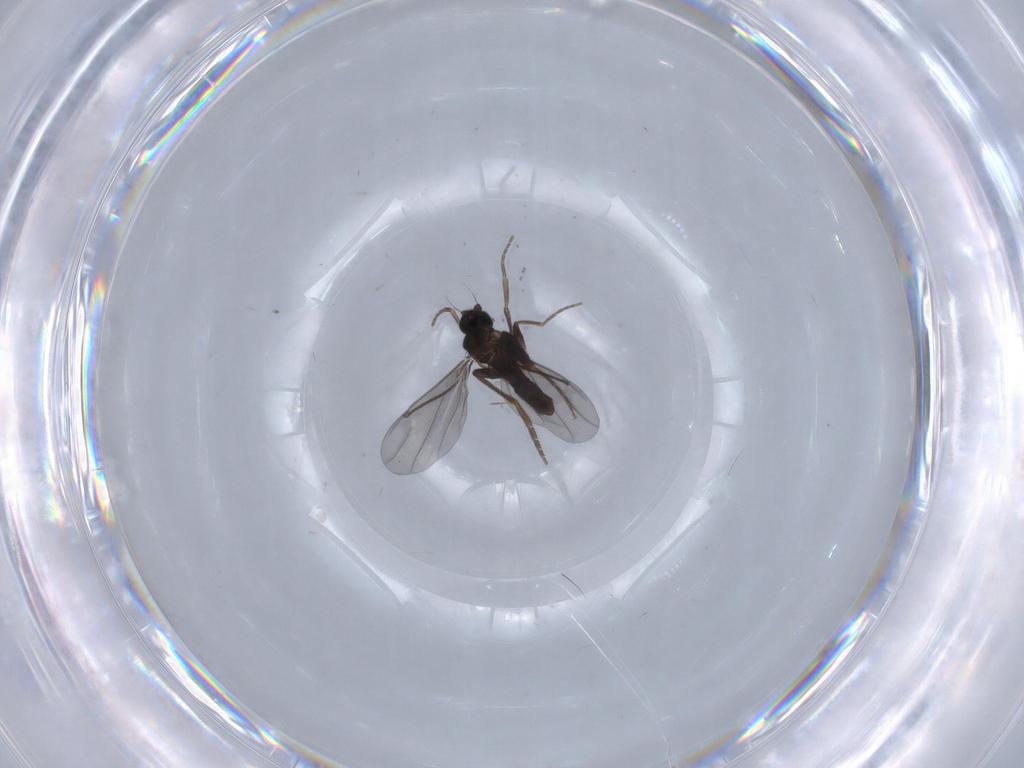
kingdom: Animalia
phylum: Arthropoda
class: Insecta
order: Diptera
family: Phoridae
